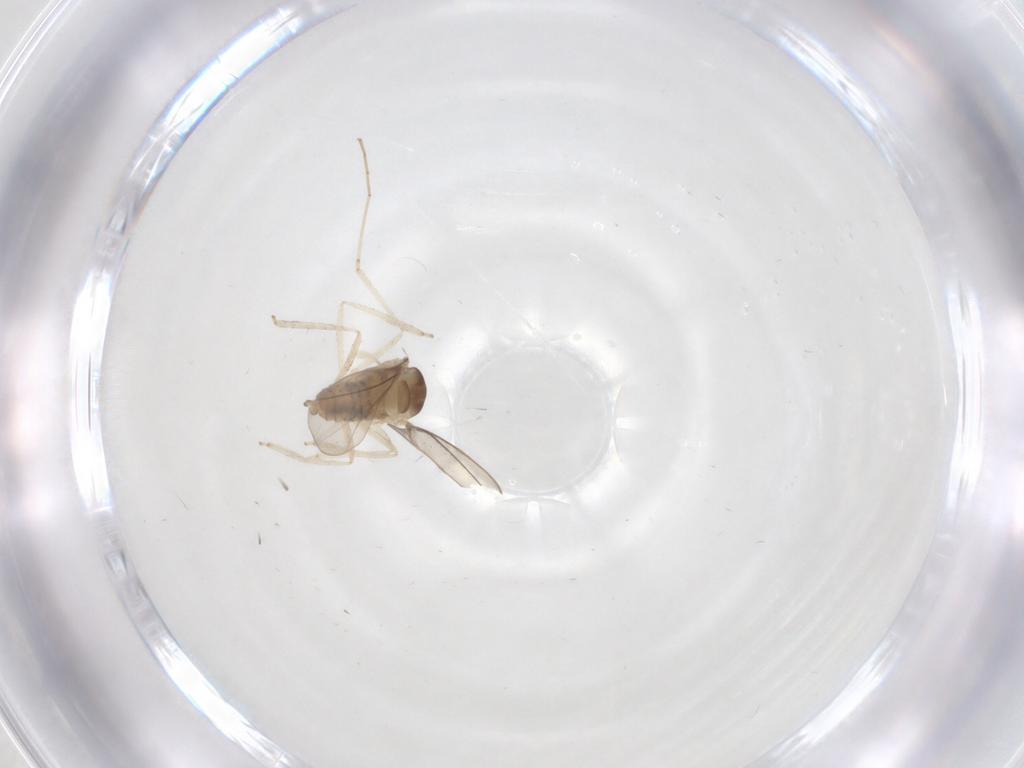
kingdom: Animalia
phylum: Arthropoda
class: Insecta
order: Diptera
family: Cecidomyiidae
